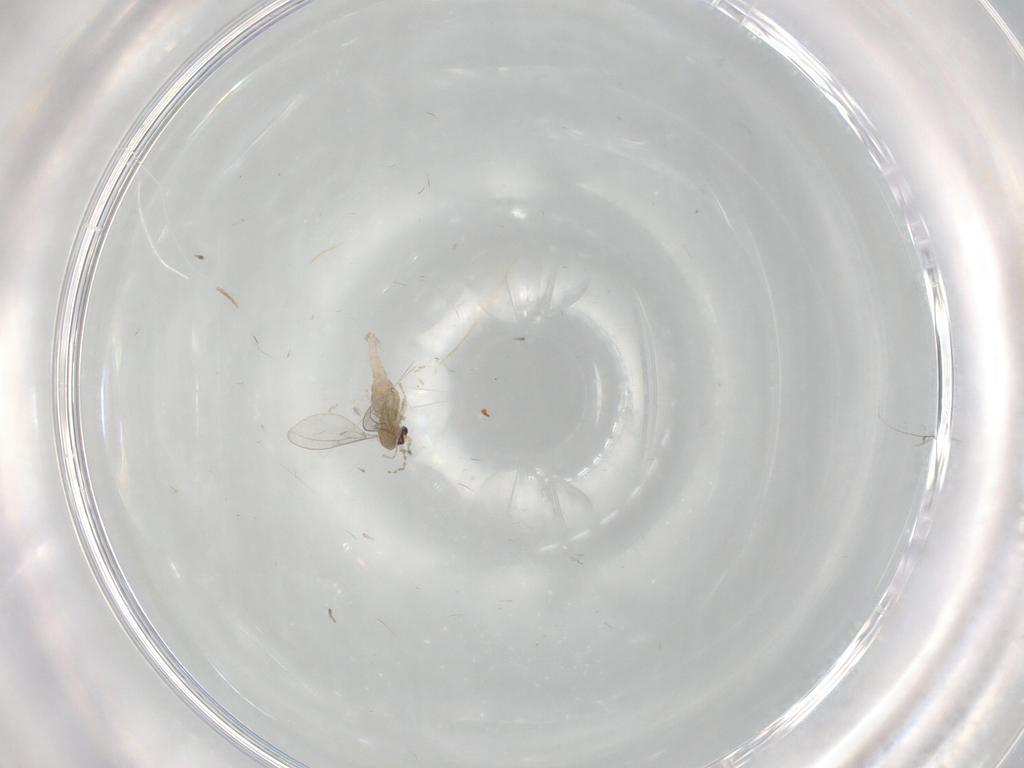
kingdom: Animalia
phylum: Arthropoda
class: Insecta
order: Diptera
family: Cecidomyiidae
